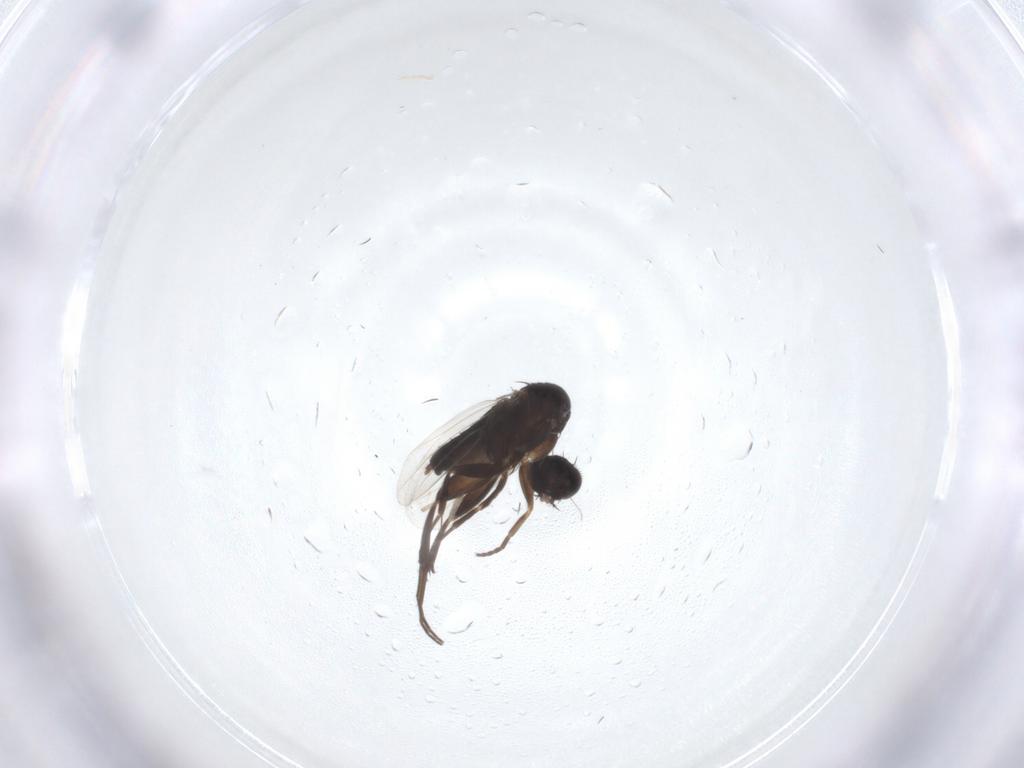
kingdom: Animalia
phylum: Arthropoda
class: Insecta
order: Diptera
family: Phoridae
